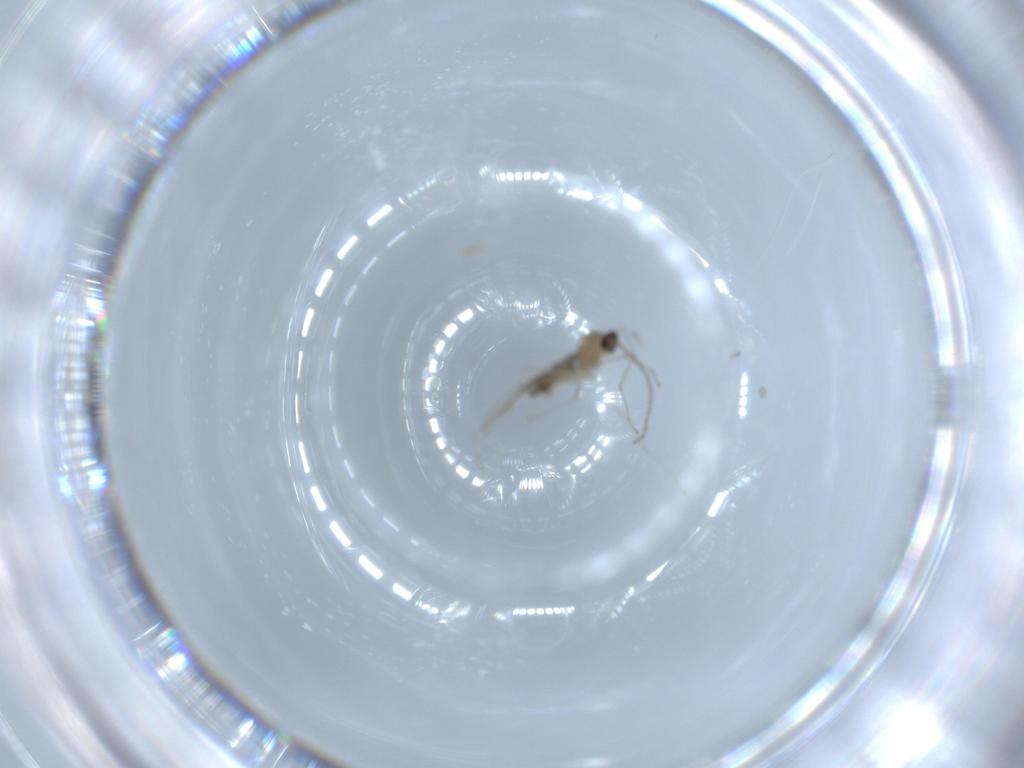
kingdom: Animalia
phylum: Arthropoda
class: Insecta
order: Diptera
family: Cecidomyiidae
